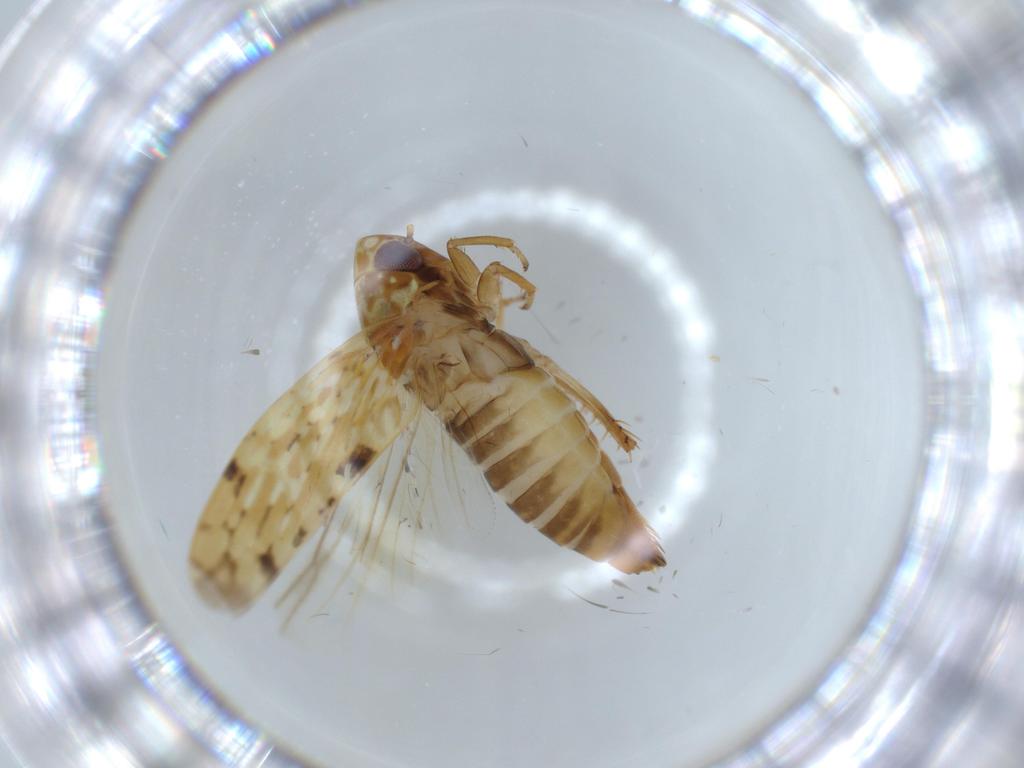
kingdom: Animalia
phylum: Arthropoda
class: Insecta
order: Hemiptera
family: Cicadellidae
